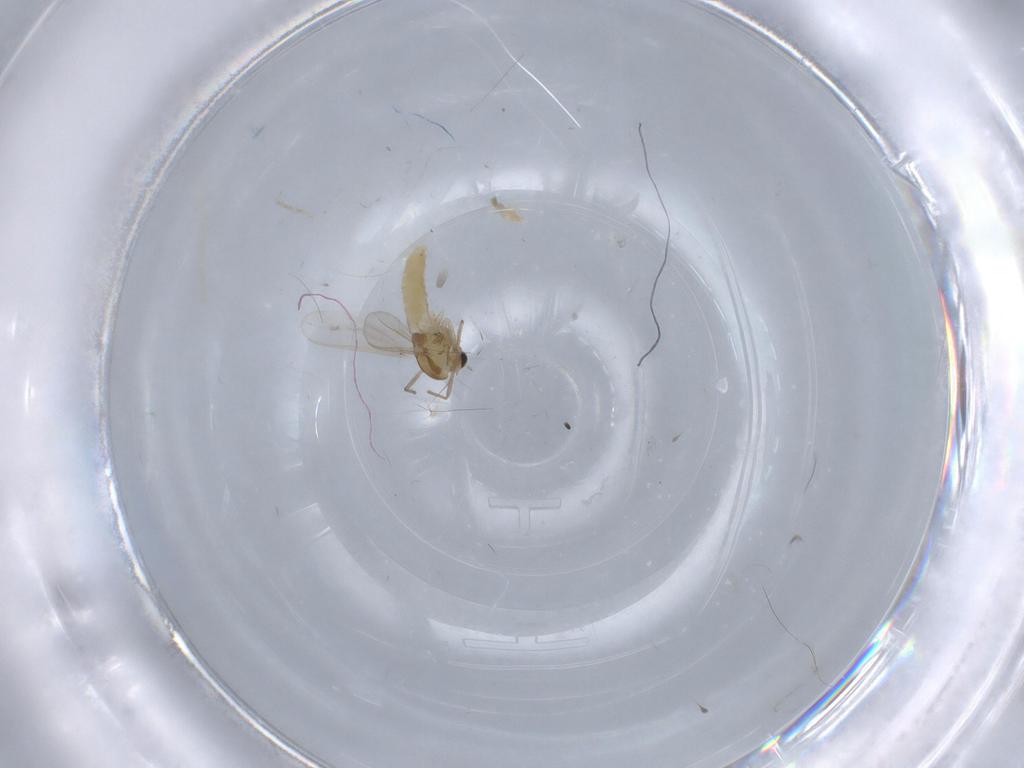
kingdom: Animalia
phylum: Arthropoda
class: Insecta
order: Diptera
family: Chironomidae
